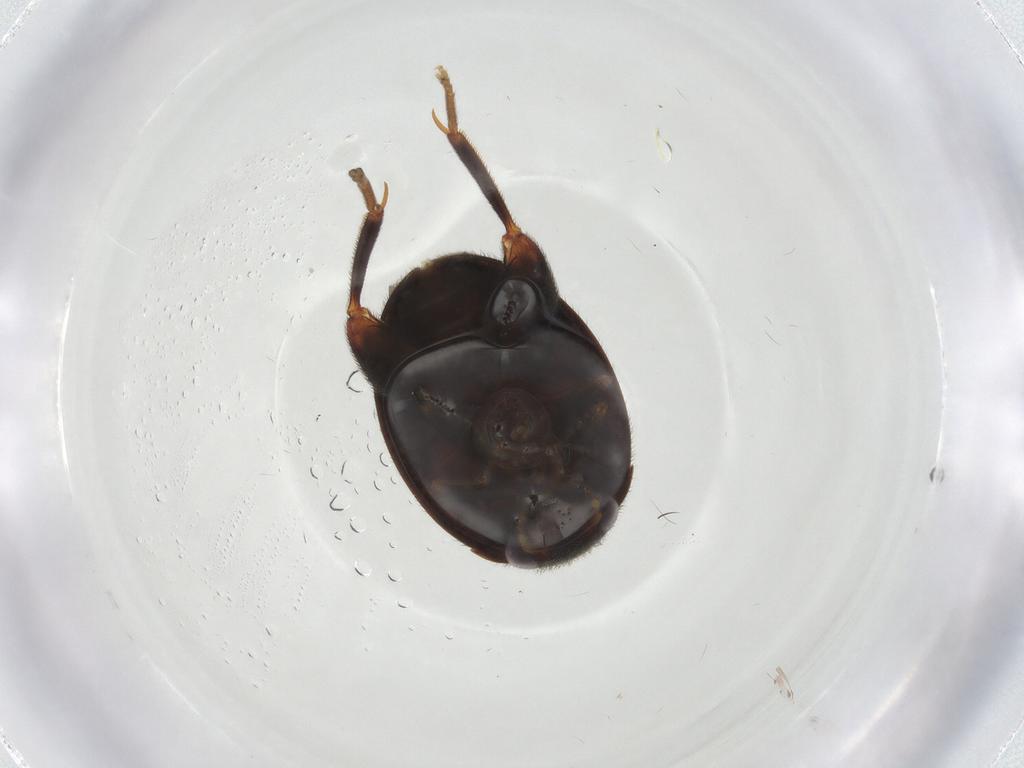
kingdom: Animalia
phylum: Arthropoda
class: Insecta
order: Coleoptera
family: Scirtidae
